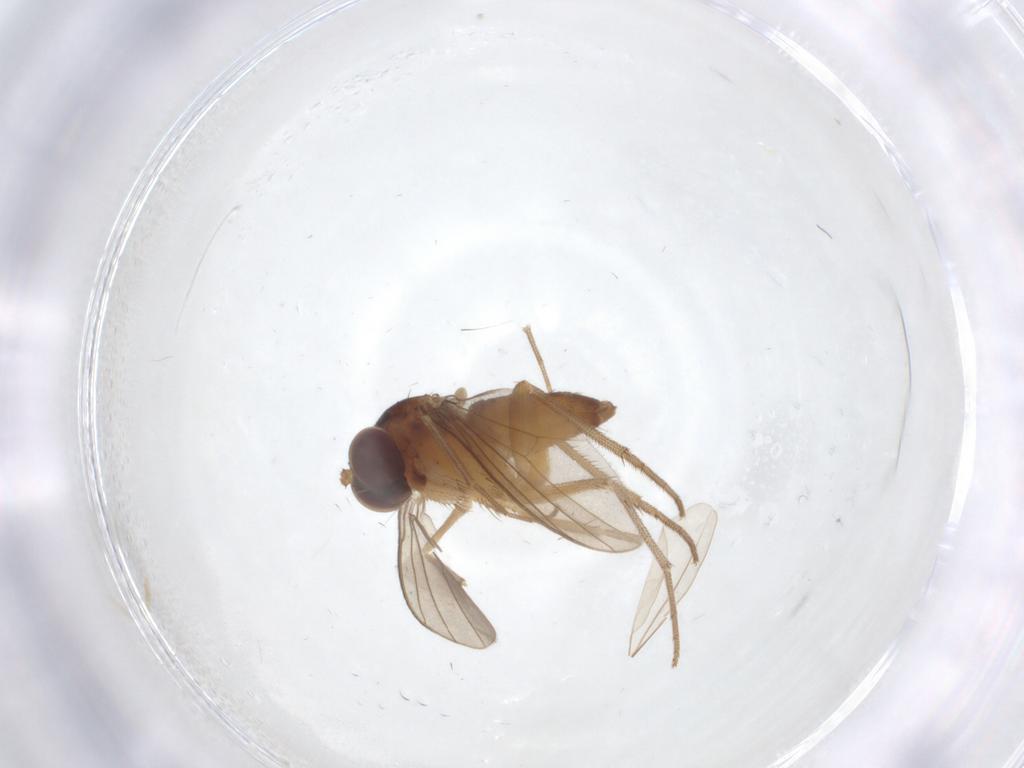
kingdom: Animalia
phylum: Arthropoda
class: Insecta
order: Diptera
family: Dolichopodidae
